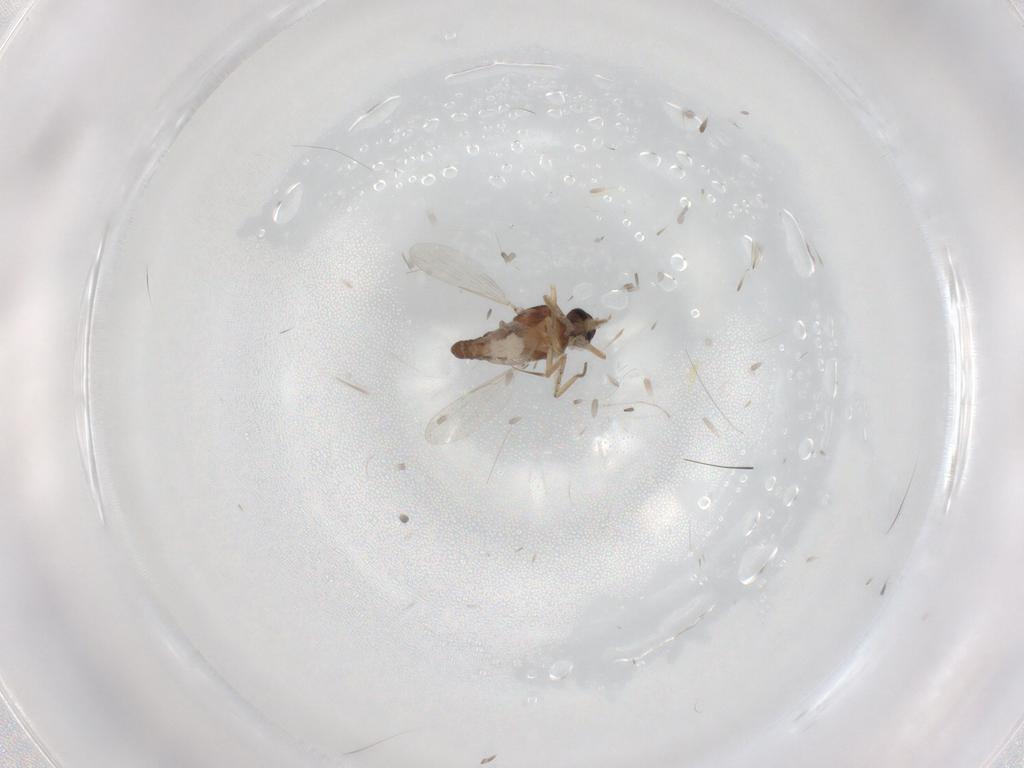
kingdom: Animalia
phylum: Arthropoda
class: Insecta
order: Diptera
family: Ceratopogonidae
